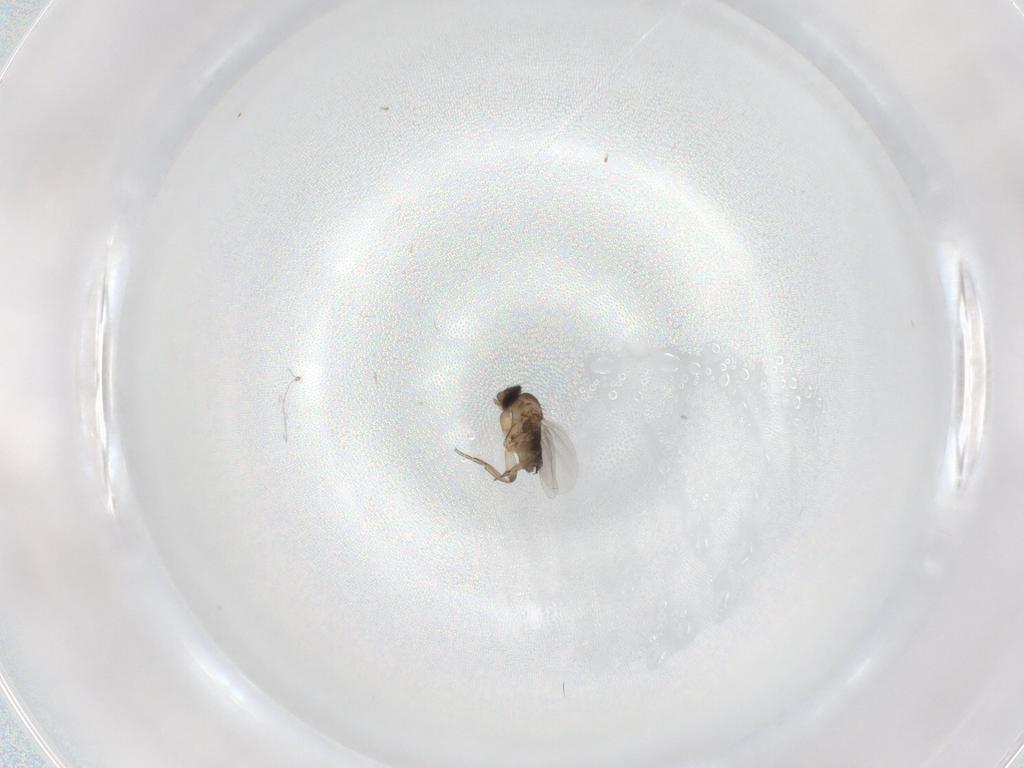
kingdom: Animalia
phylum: Arthropoda
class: Insecta
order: Diptera
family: Phoridae
